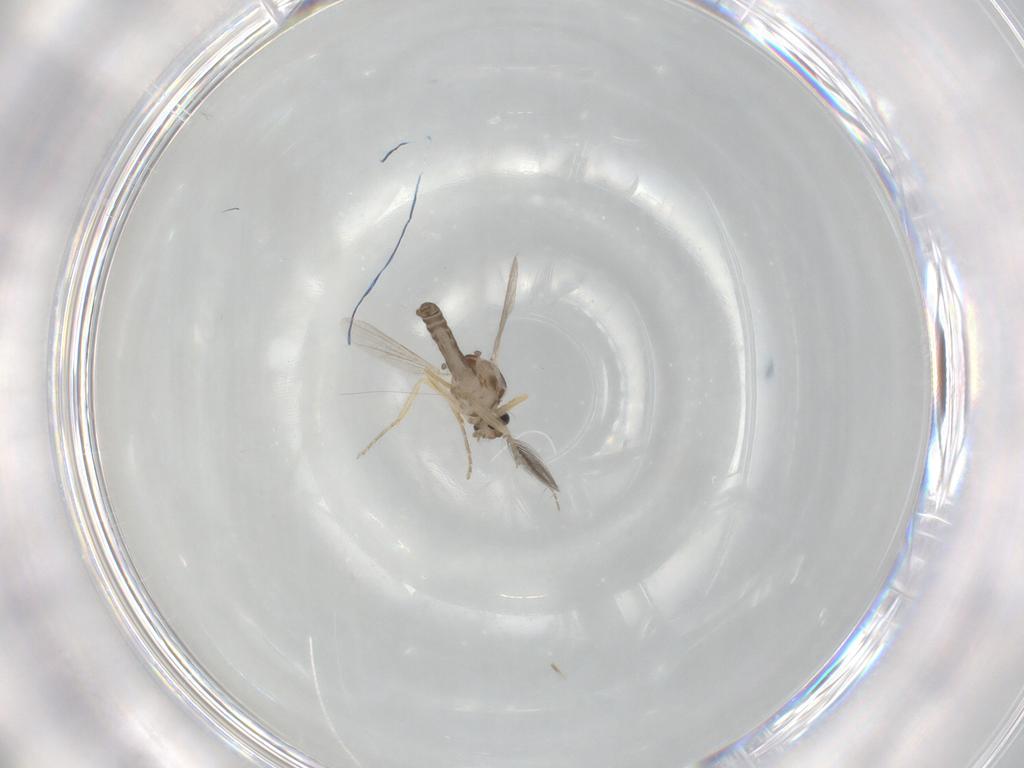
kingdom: Animalia
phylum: Arthropoda
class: Insecta
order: Diptera
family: Ceratopogonidae
